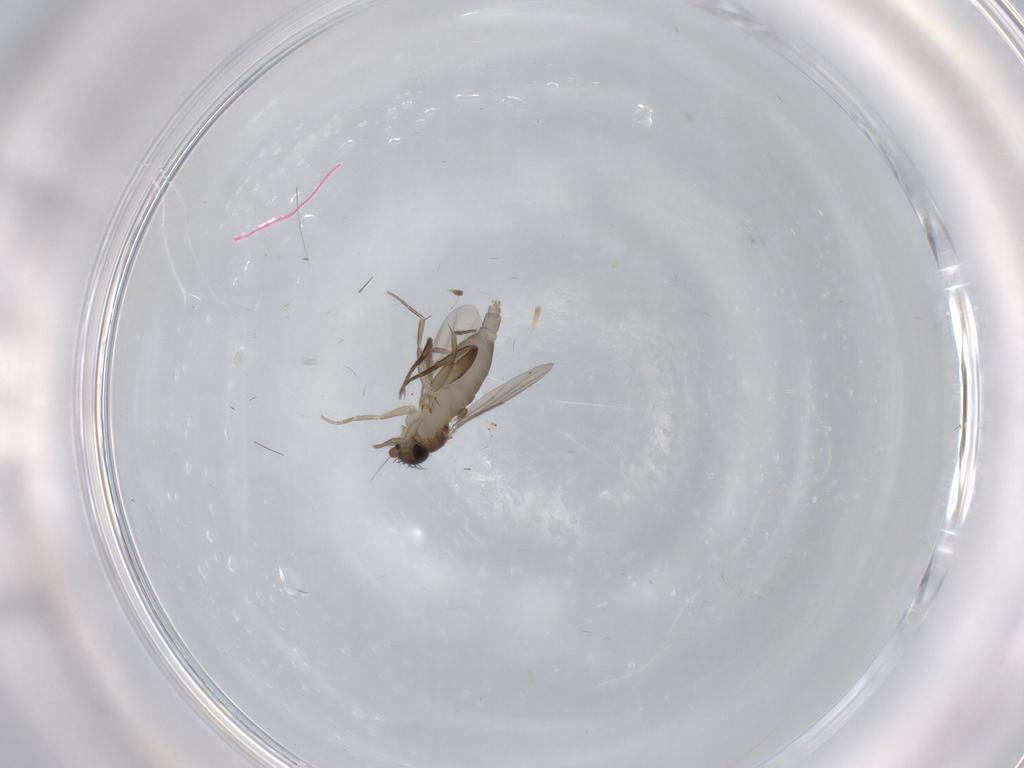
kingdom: Animalia
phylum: Arthropoda
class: Insecta
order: Diptera
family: Phoridae
